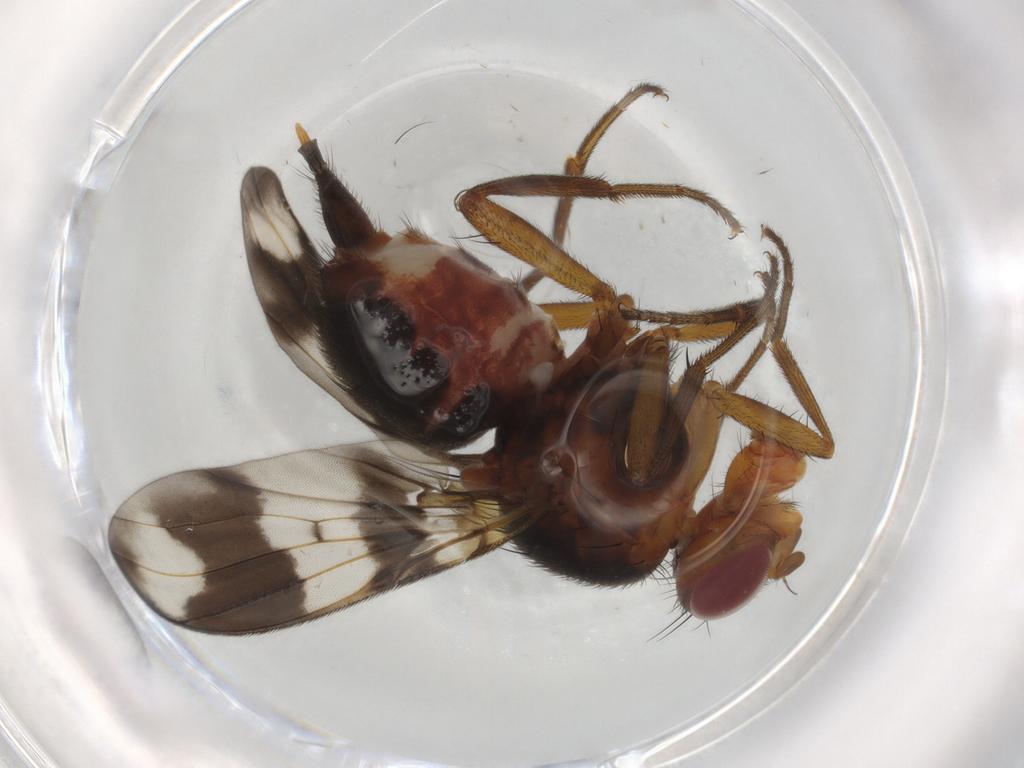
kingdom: Animalia
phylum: Arthropoda
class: Insecta
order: Diptera
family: Richardiidae
